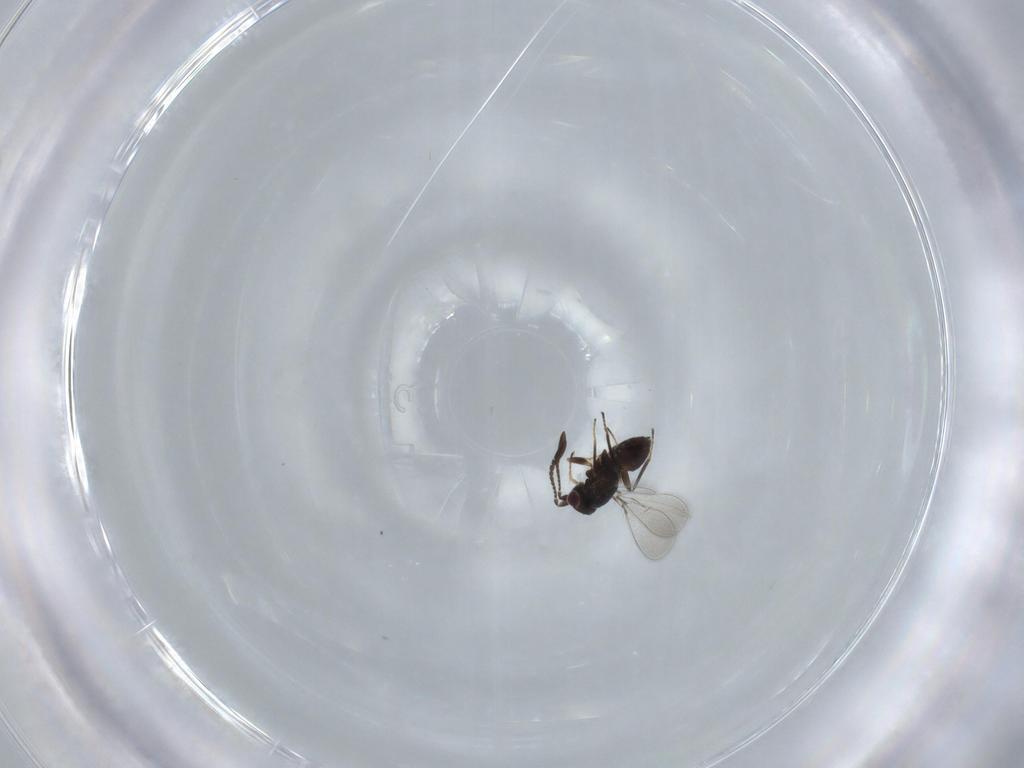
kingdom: Animalia
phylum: Arthropoda
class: Insecta
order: Hymenoptera
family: Mymaridae
